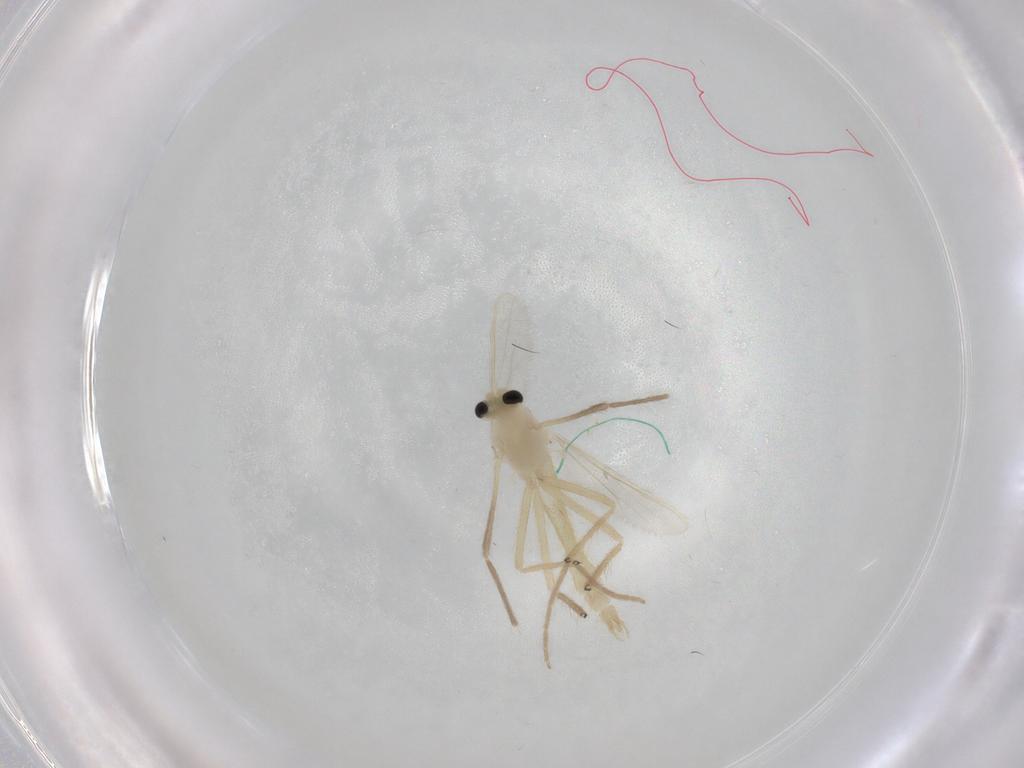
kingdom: Animalia
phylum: Arthropoda
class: Insecta
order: Diptera
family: Chironomidae
